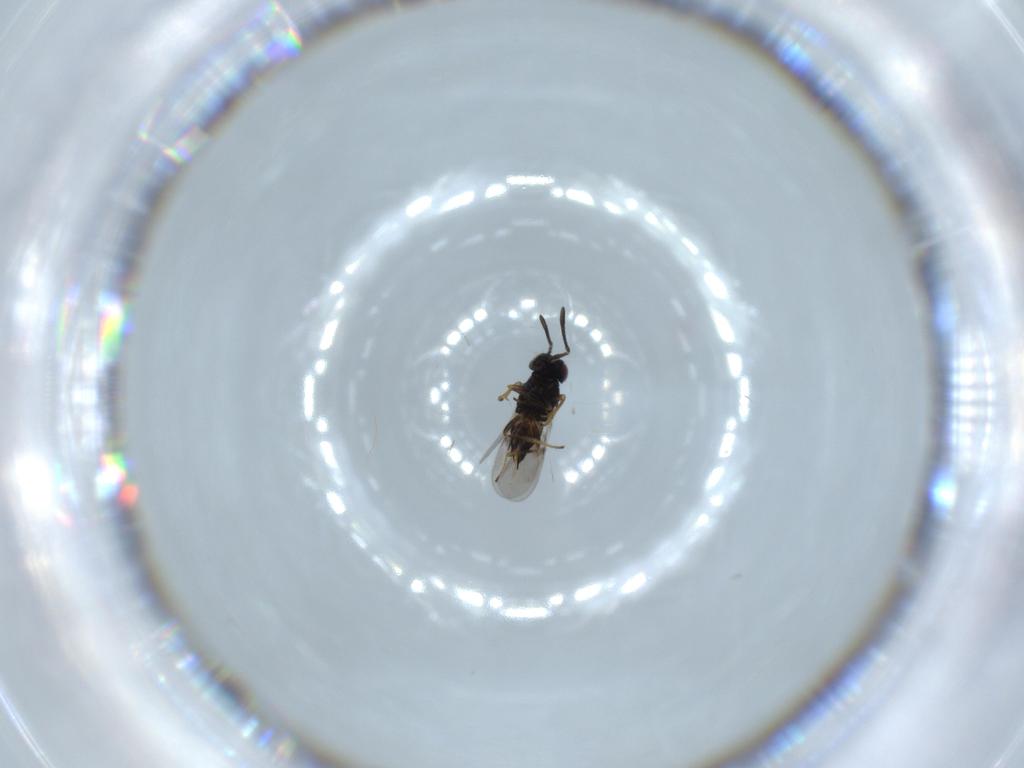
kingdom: Animalia
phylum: Arthropoda
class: Insecta
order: Hymenoptera
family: Encyrtidae
